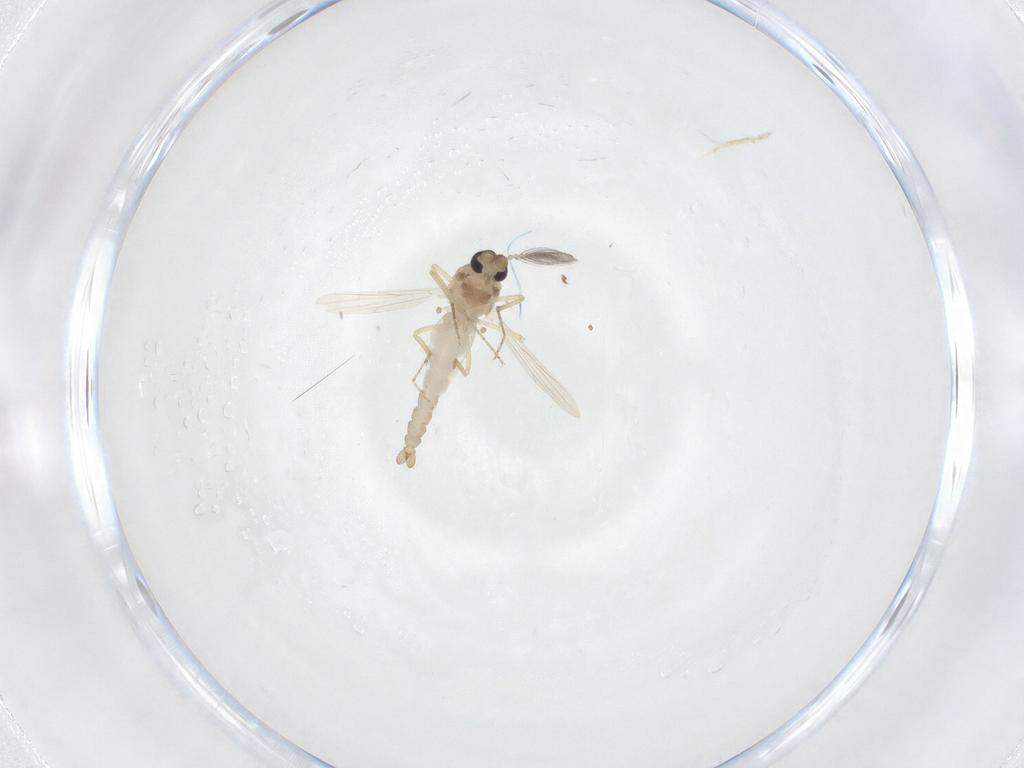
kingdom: Animalia
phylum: Arthropoda
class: Insecta
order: Diptera
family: Ceratopogonidae
